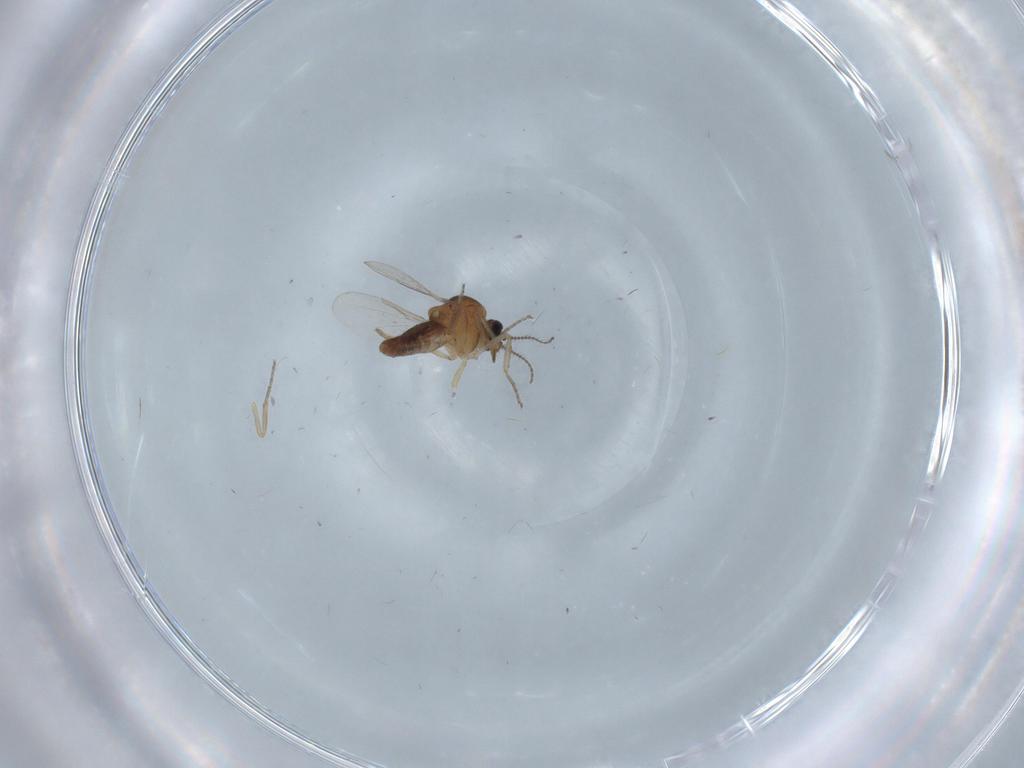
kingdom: Animalia
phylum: Arthropoda
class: Insecta
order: Diptera
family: Ceratopogonidae
